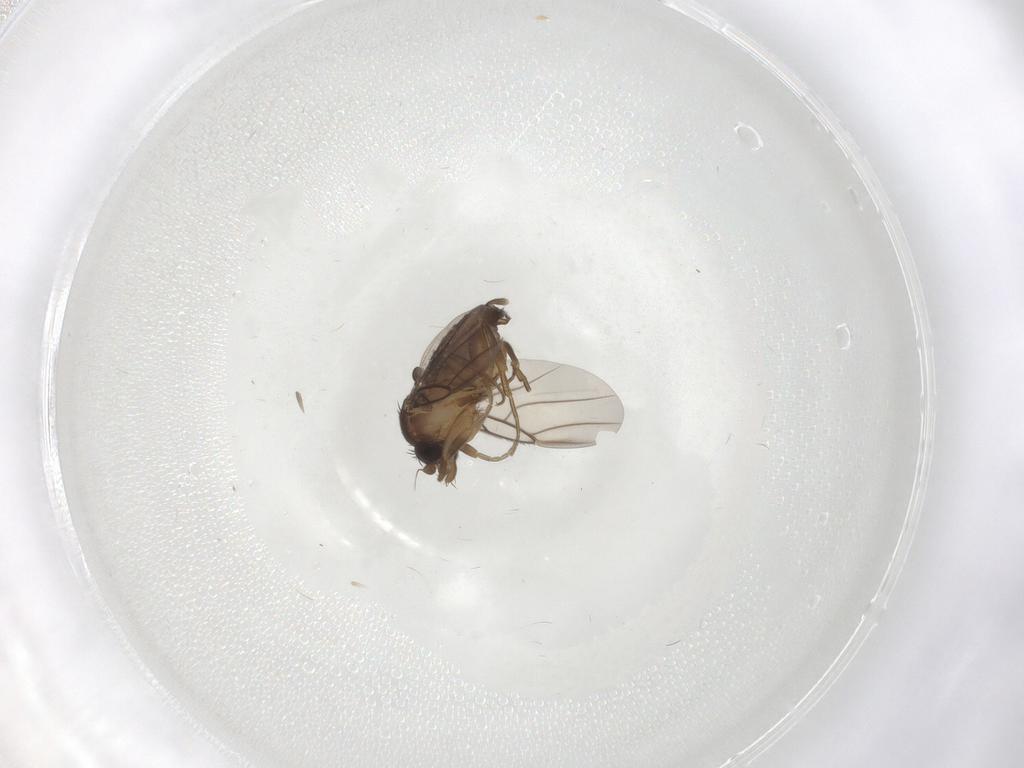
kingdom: Animalia
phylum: Arthropoda
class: Insecta
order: Diptera
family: Phoridae
